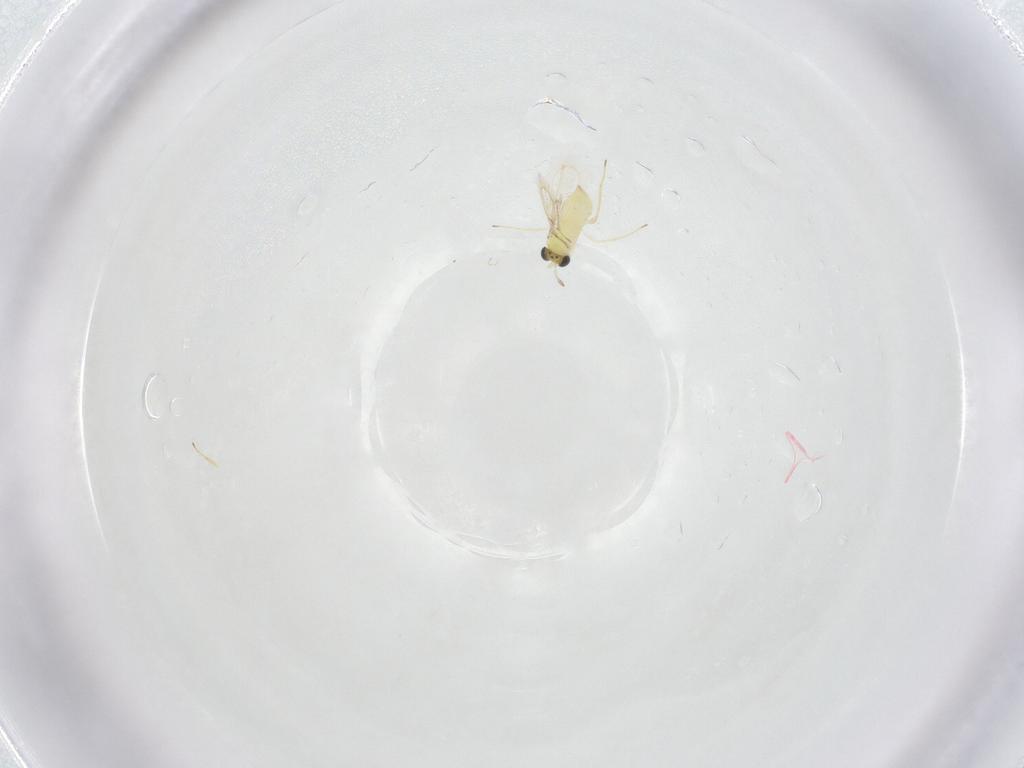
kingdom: Animalia
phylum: Arthropoda
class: Insecta
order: Hymenoptera
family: Trichogrammatidae
